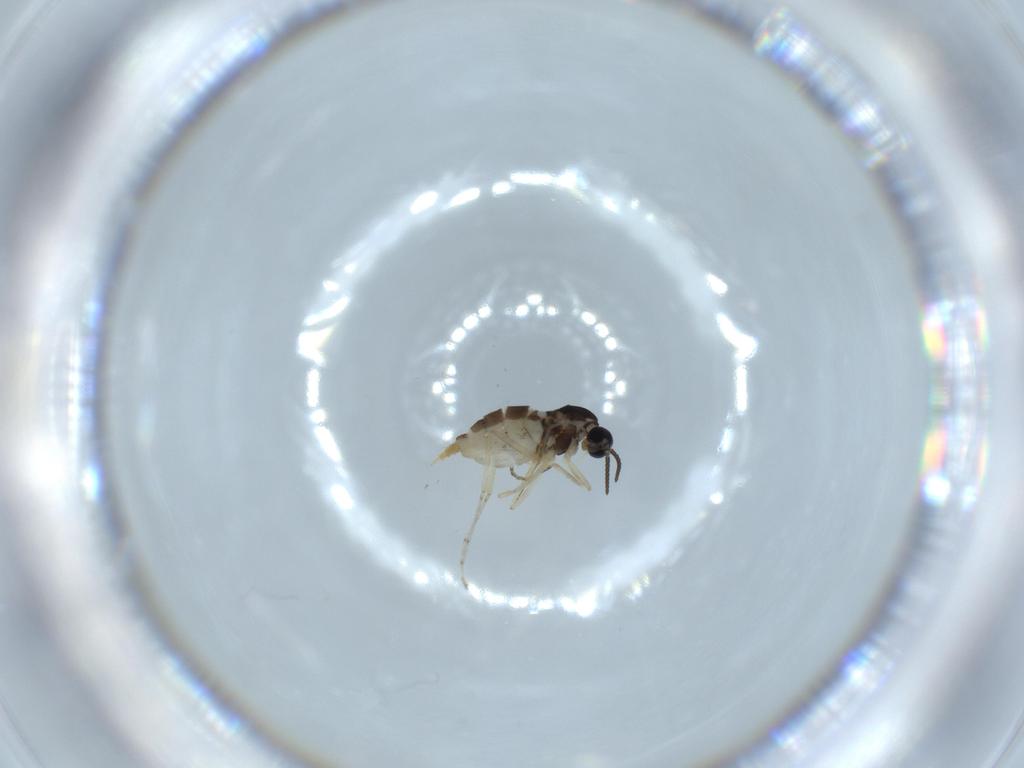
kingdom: Animalia
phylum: Arthropoda
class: Insecta
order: Diptera
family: Cecidomyiidae
